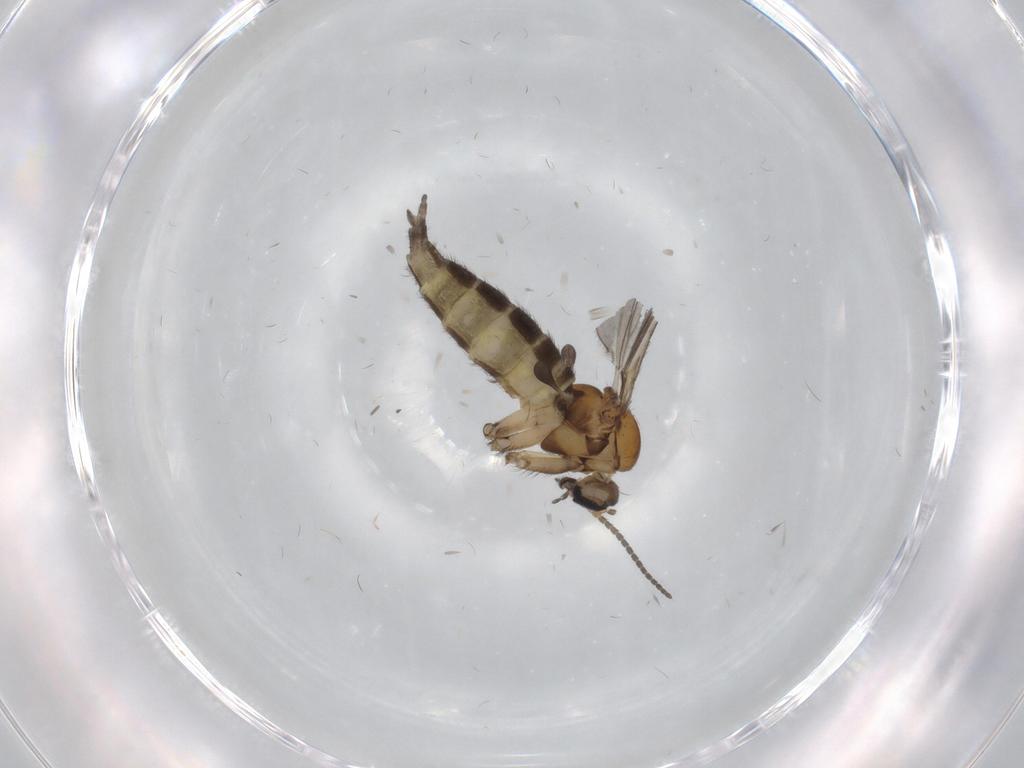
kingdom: Animalia
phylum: Arthropoda
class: Insecta
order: Diptera
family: Sciaridae
